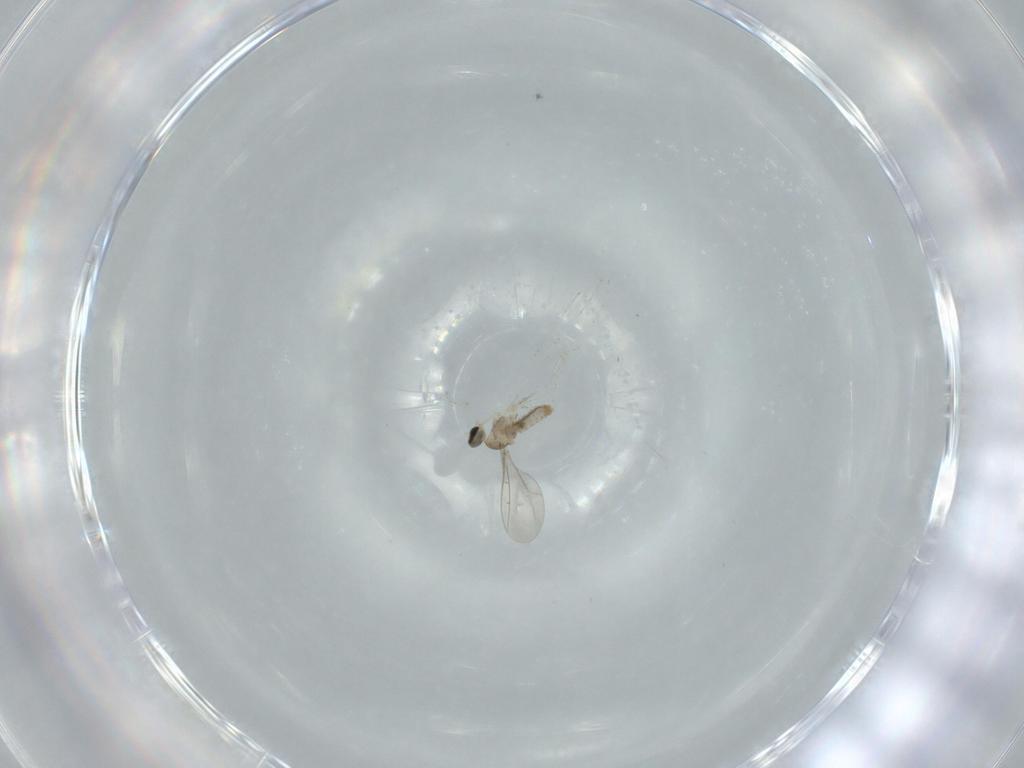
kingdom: Animalia
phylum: Arthropoda
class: Insecta
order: Diptera
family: Cecidomyiidae
